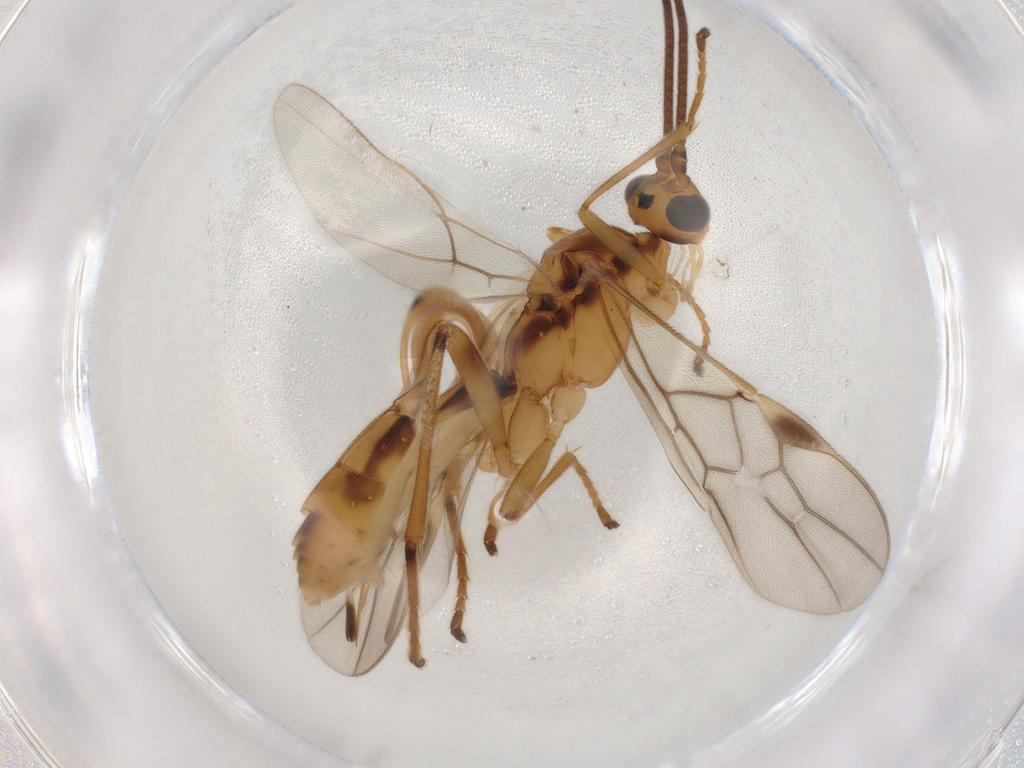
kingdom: Animalia
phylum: Arthropoda
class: Insecta
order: Hymenoptera
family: Braconidae
